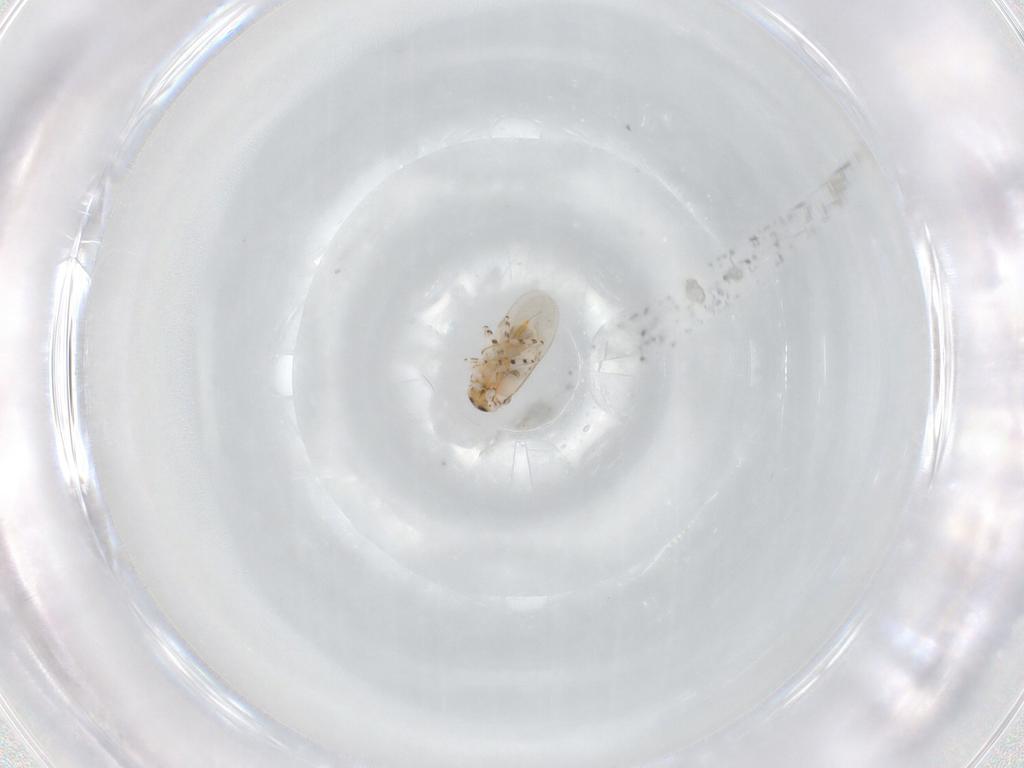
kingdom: Animalia
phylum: Arthropoda
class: Insecta
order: Hymenoptera
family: Encyrtidae
